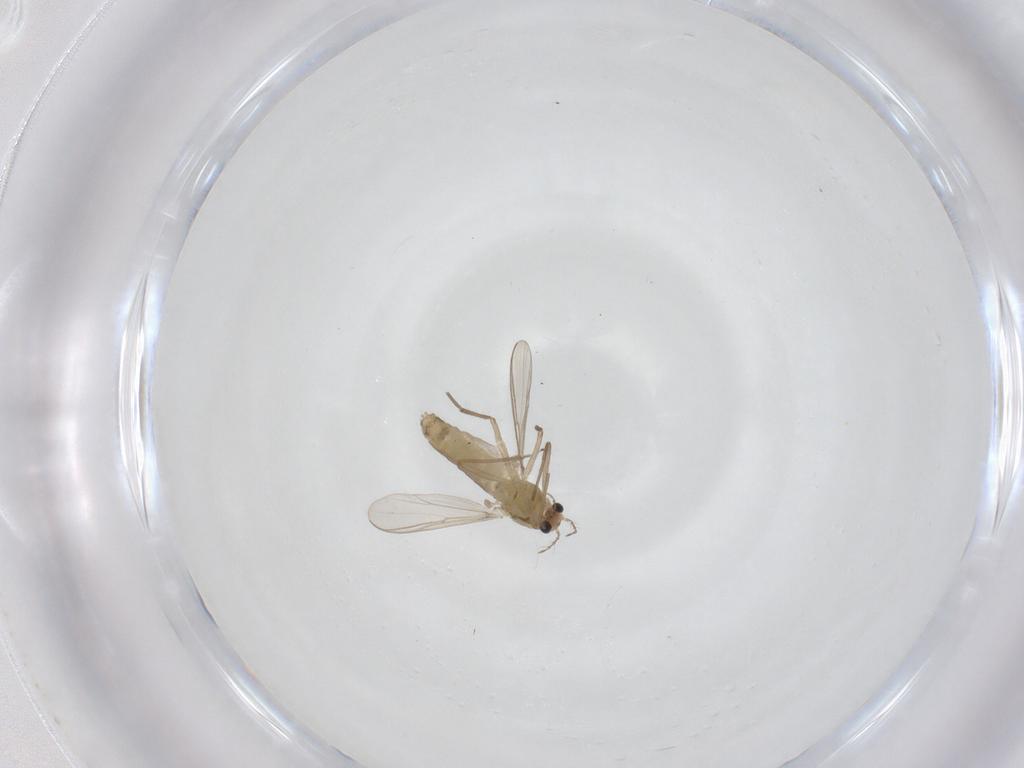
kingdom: Animalia
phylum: Arthropoda
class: Insecta
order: Diptera
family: Chironomidae
